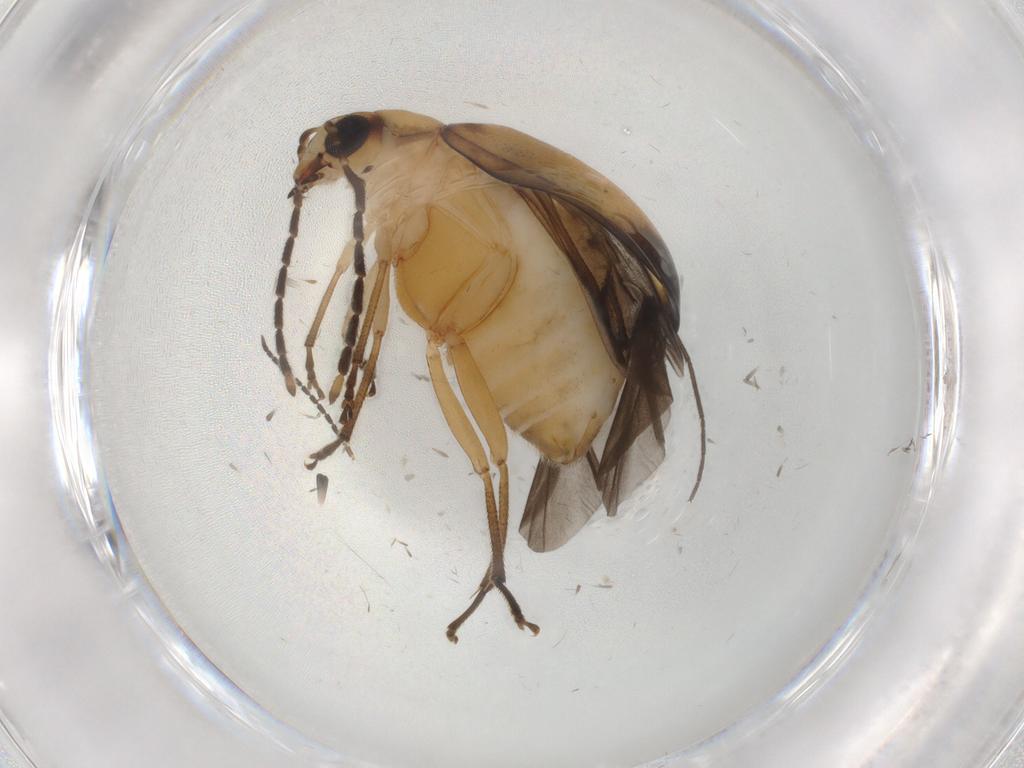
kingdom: Animalia
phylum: Arthropoda
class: Insecta
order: Coleoptera
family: Chrysomelidae
